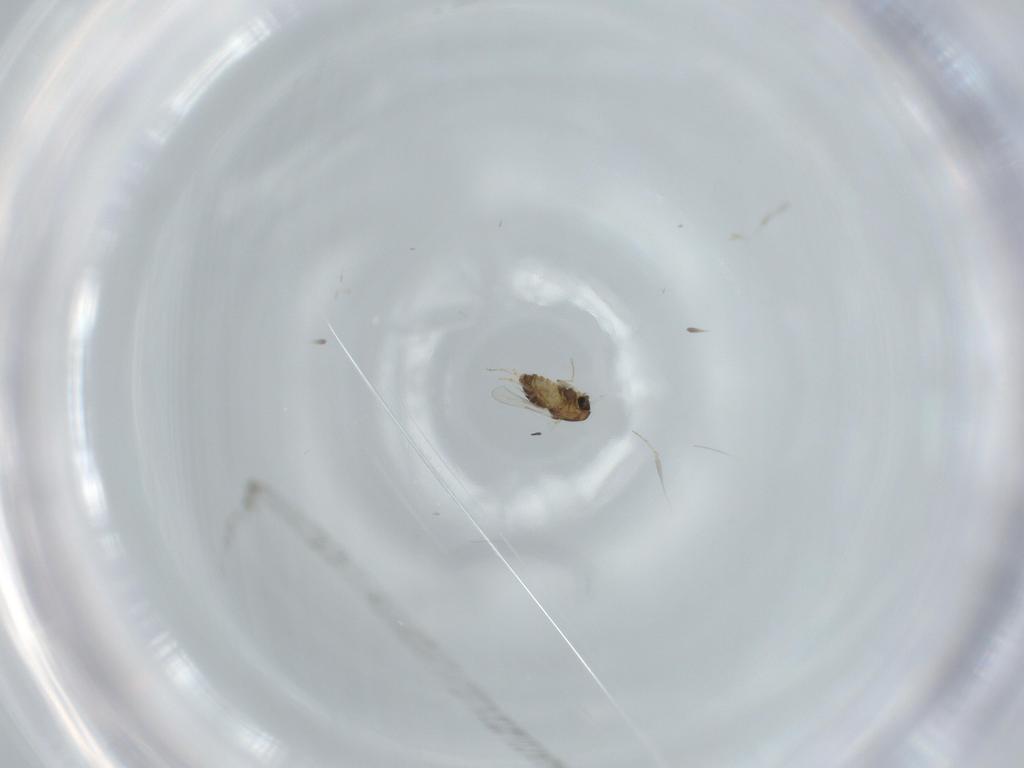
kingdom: Animalia
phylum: Arthropoda
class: Insecta
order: Diptera
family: Chironomidae
